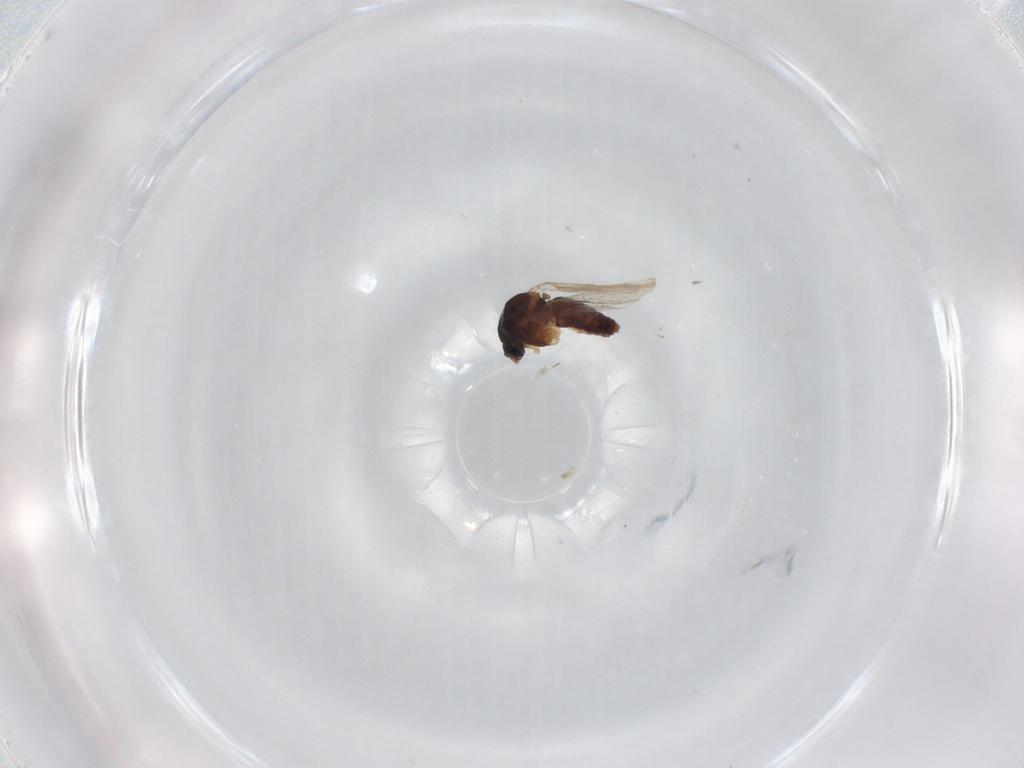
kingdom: Animalia
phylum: Arthropoda
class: Insecta
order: Diptera
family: Ceratopogonidae
